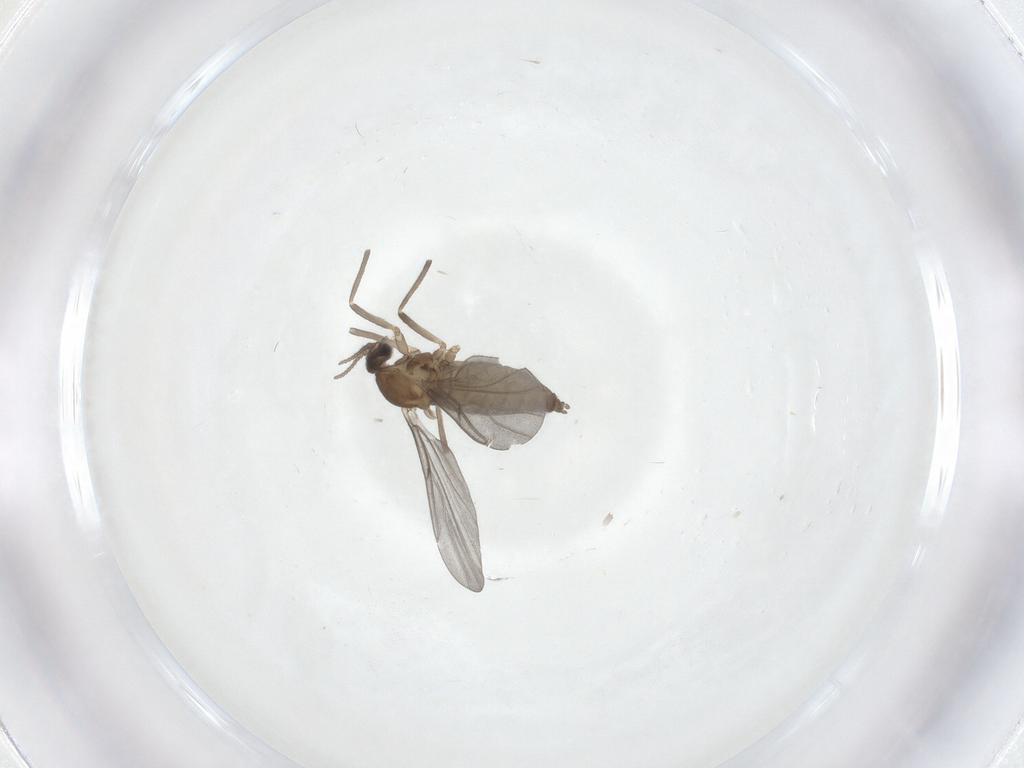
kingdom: Animalia
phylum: Arthropoda
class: Insecta
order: Diptera
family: Cecidomyiidae
